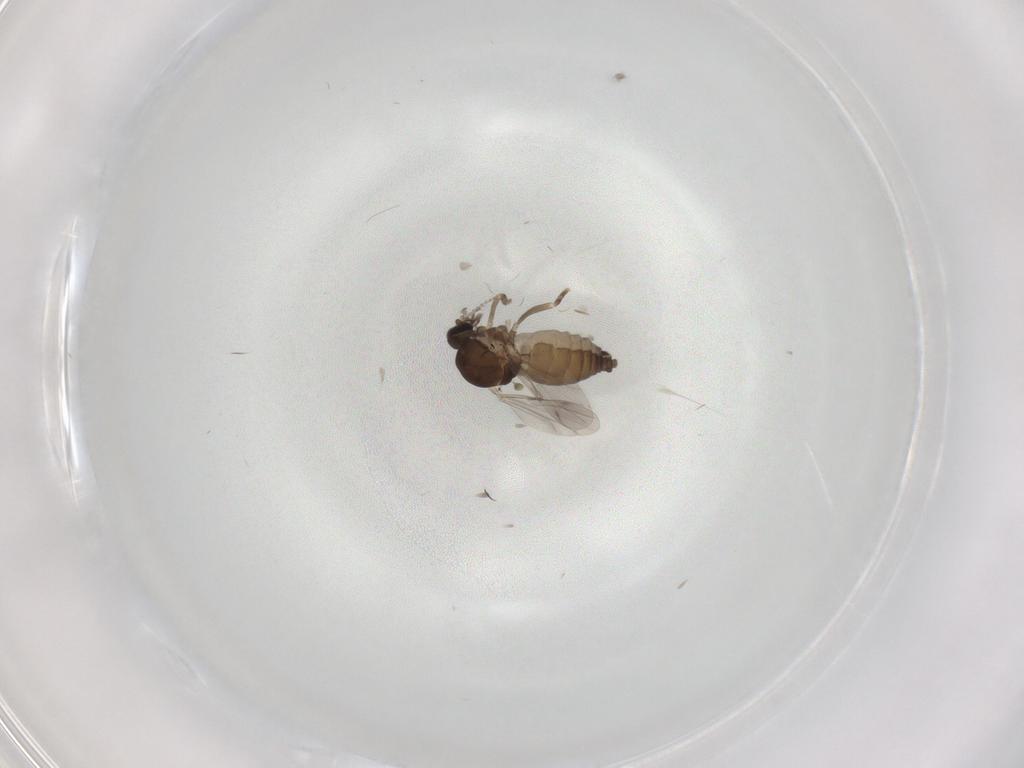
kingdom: Animalia
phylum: Arthropoda
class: Insecta
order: Diptera
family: Ceratopogonidae
